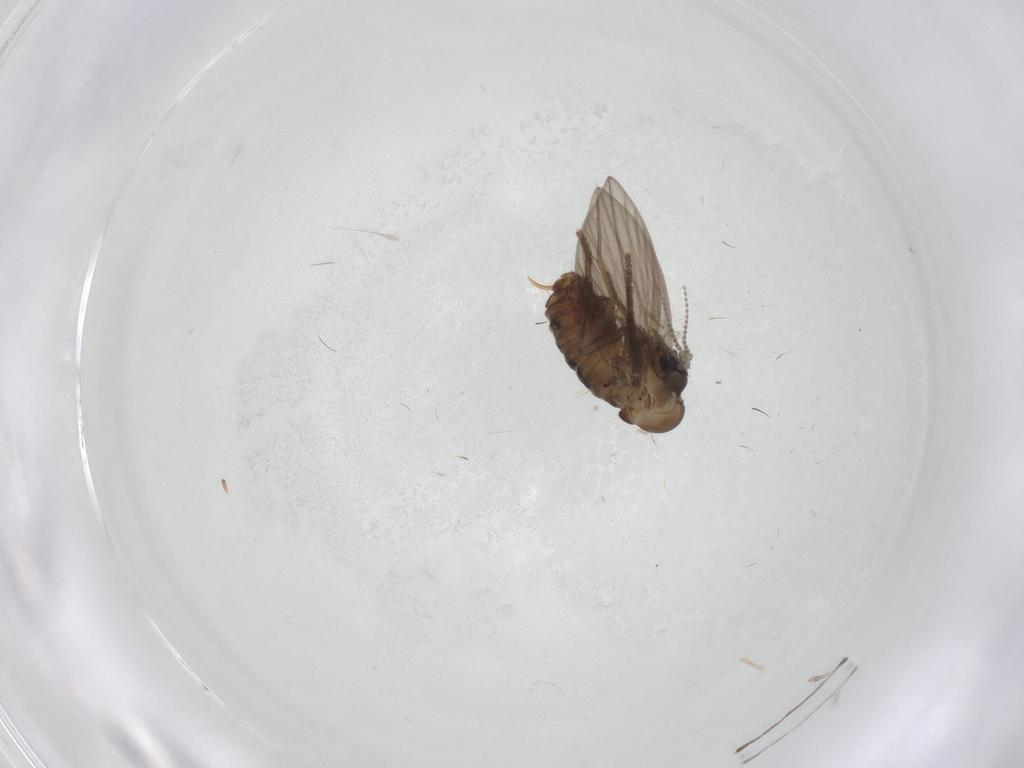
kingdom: Animalia
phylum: Arthropoda
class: Insecta
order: Diptera
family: Psychodidae
